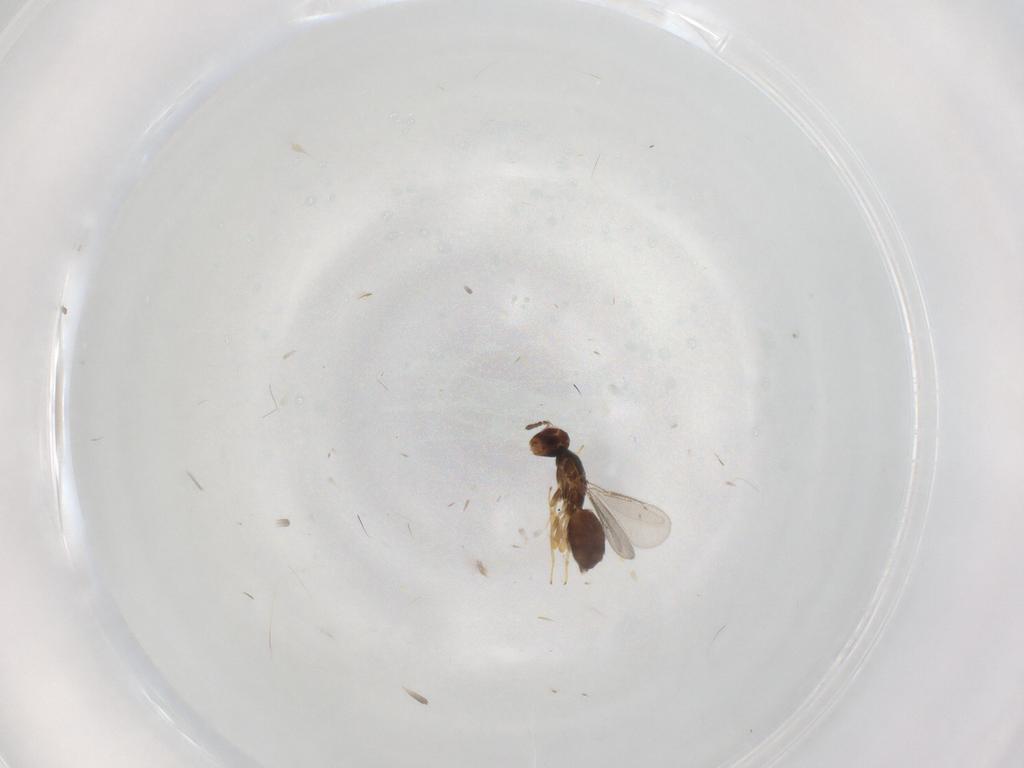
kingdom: Animalia
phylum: Arthropoda
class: Insecta
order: Hymenoptera
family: Eulophidae
